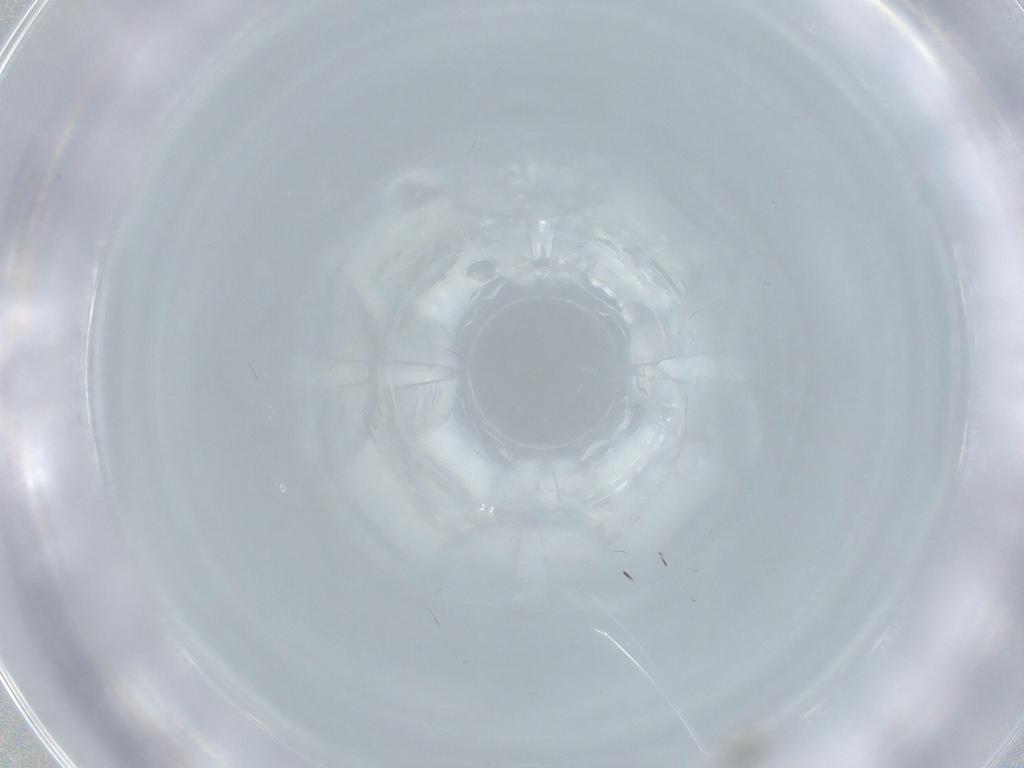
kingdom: Animalia
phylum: Arthropoda
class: Insecta
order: Diptera
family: Cecidomyiidae
